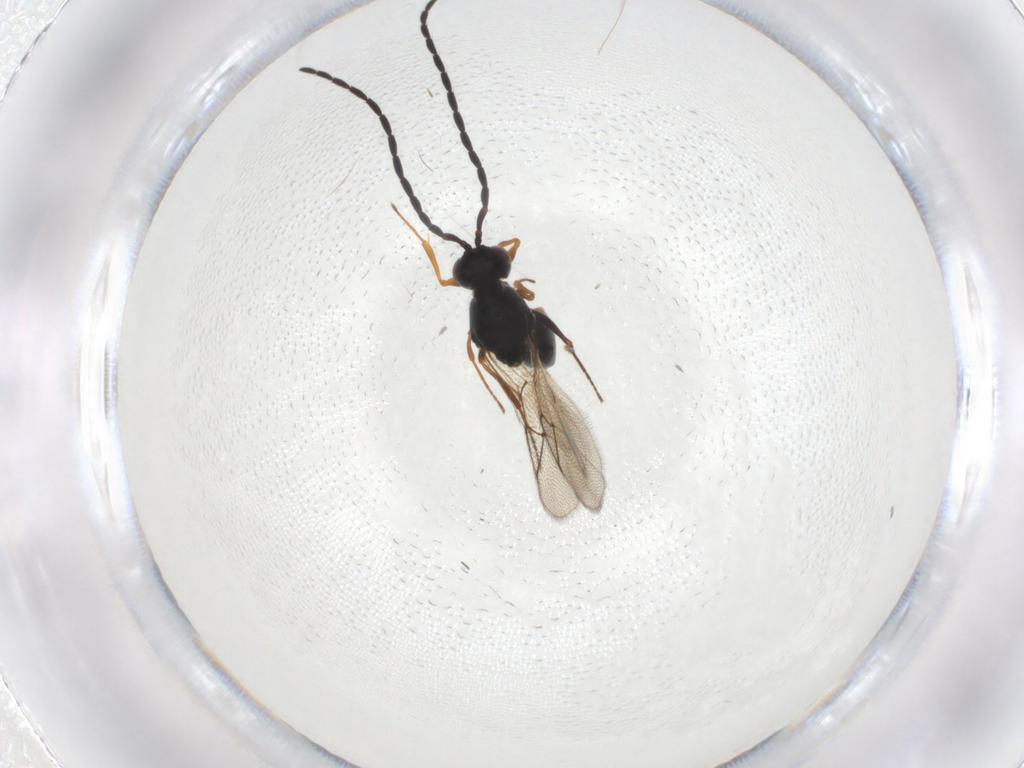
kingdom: Animalia
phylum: Arthropoda
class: Insecta
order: Hymenoptera
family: Figitidae
